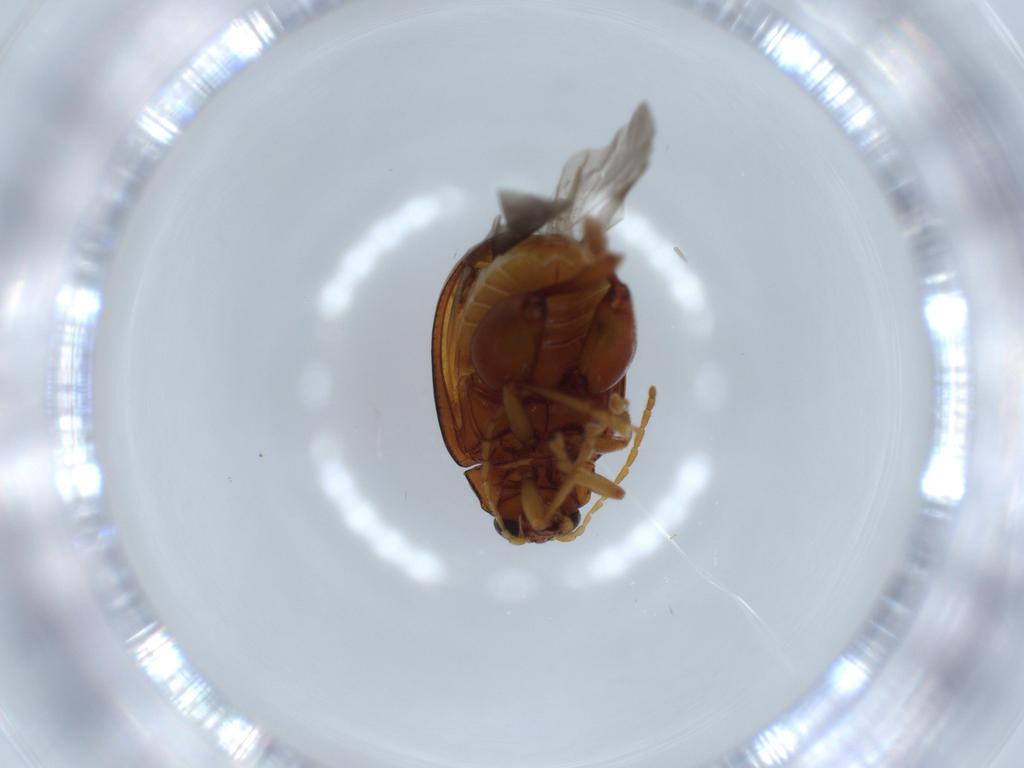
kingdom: Animalia
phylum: Arthropoda
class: Insecta
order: Coleoptera
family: Chrysomelidae
